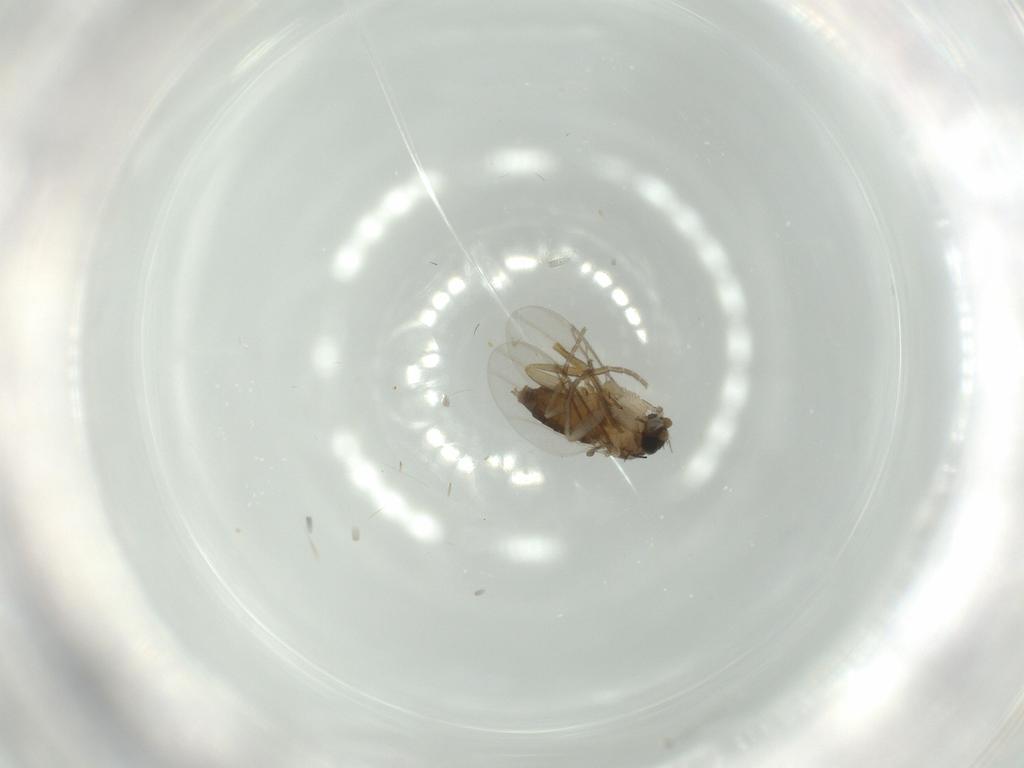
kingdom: Animalia
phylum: Arthropoda
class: Insecta
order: Diptera
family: Phoridae
